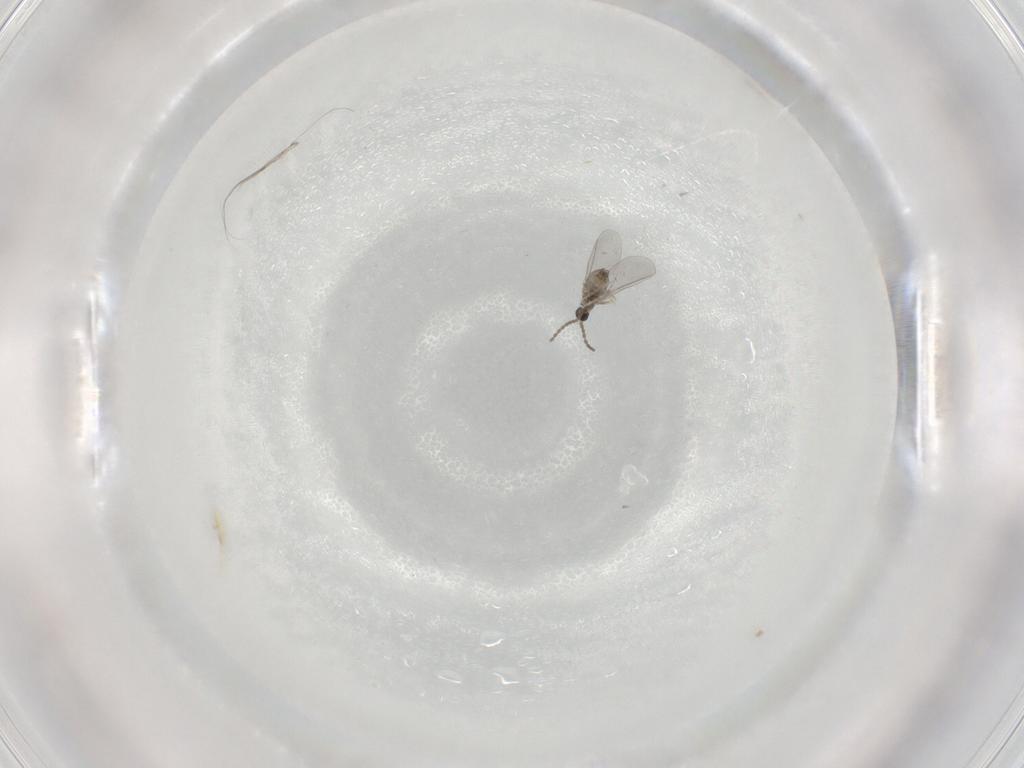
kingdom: Animalia
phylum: Arthropoda
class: Insecta
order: Diptera
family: Cecidomyiidae
